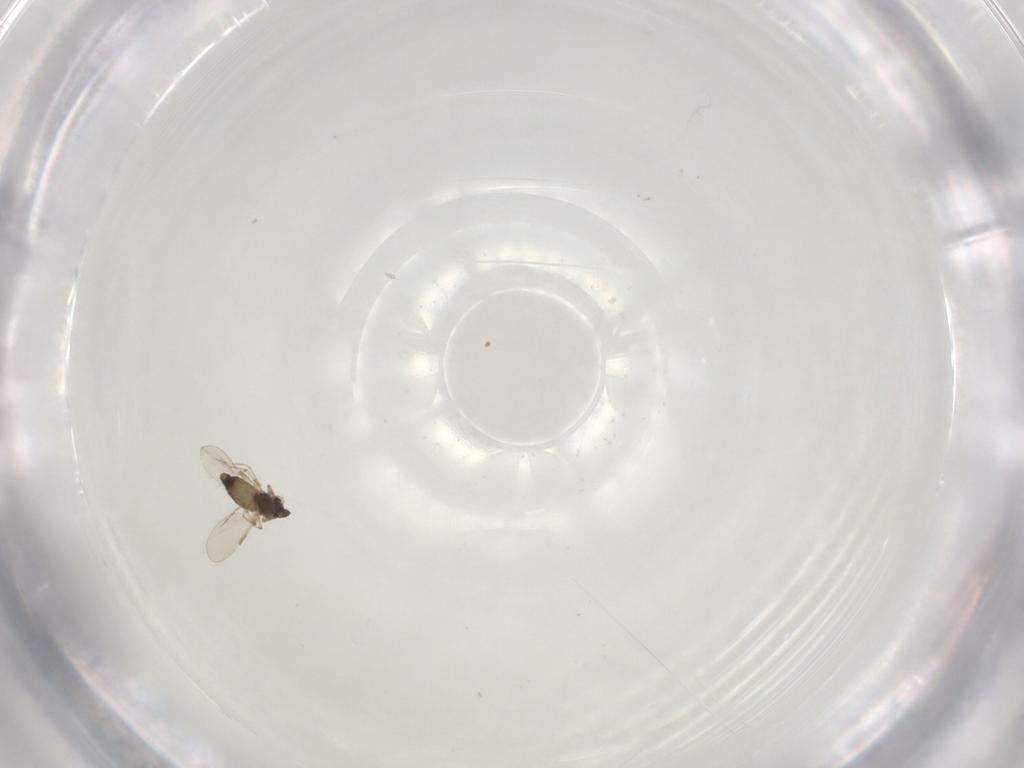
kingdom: Animalia
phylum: Arthropoda
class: Insecta
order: Diptera
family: Chironomidae
